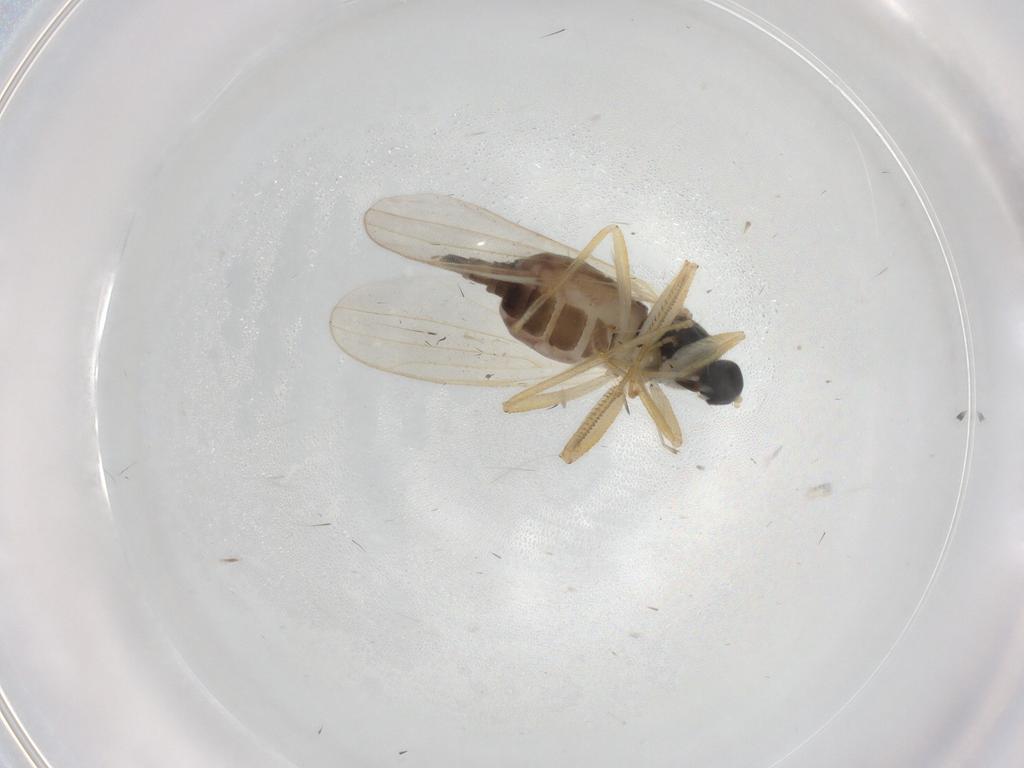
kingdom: Animalia
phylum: Arthropoda
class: Insecta
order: Diptera
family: Hybotidae
